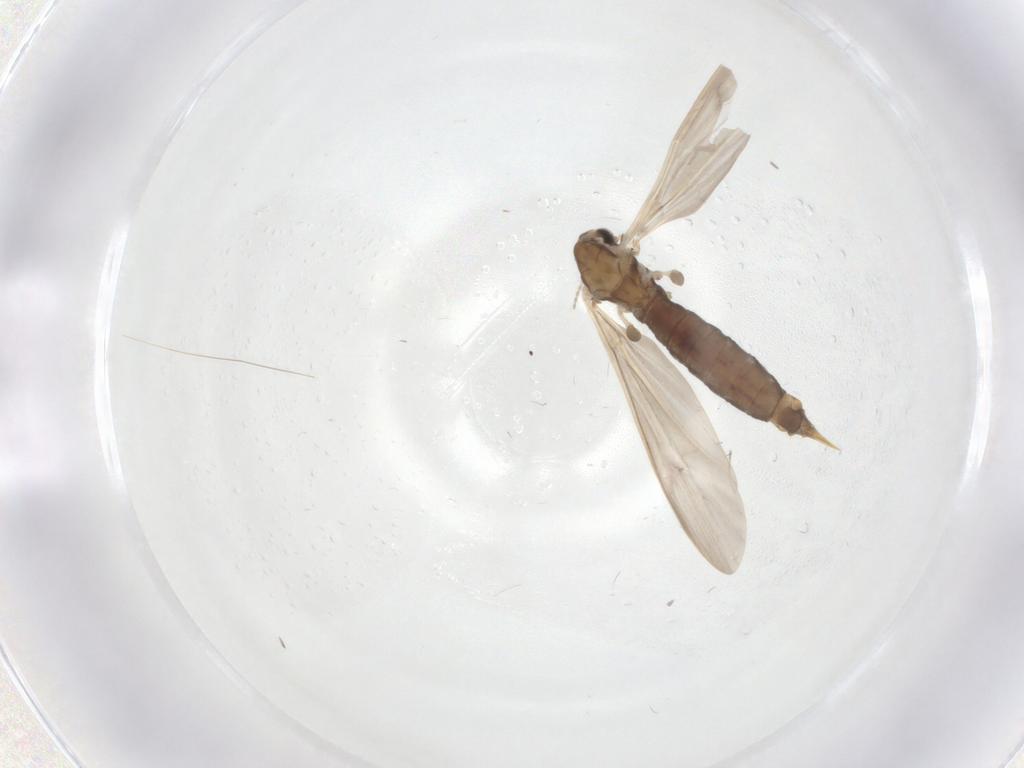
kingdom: Animalia
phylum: Arthropoda
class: Insecta
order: Diptera
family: Limoniidae
